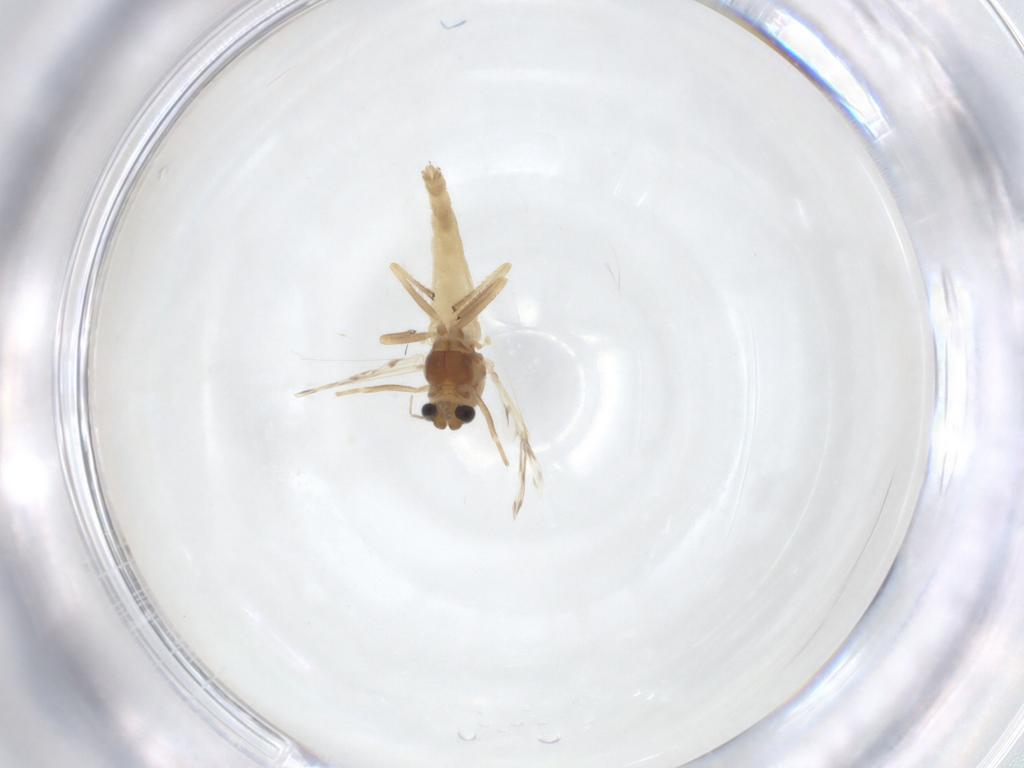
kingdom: Animalia
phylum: Arthropoda
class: Insecta
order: Diptera
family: Chironomidae
